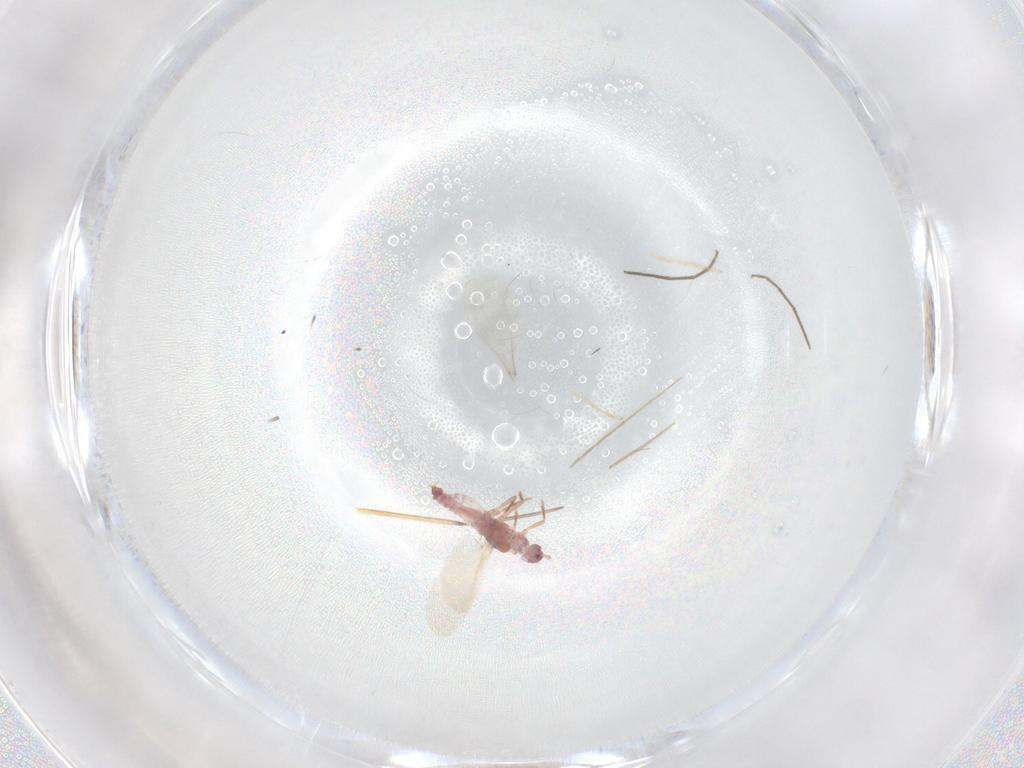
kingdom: Animalia
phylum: Arthropoda
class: Insecta
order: Diptera
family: Chironomidae
